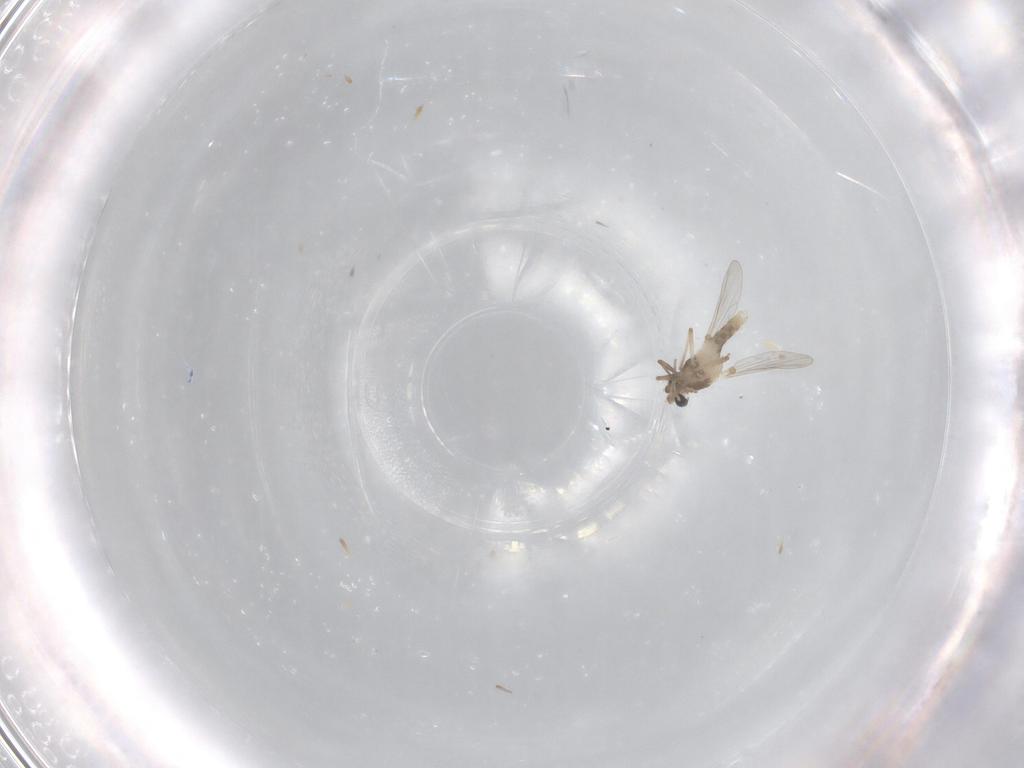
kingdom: Animalia
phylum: Arthropoda
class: Insecta
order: Diptera
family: Chironomidae
